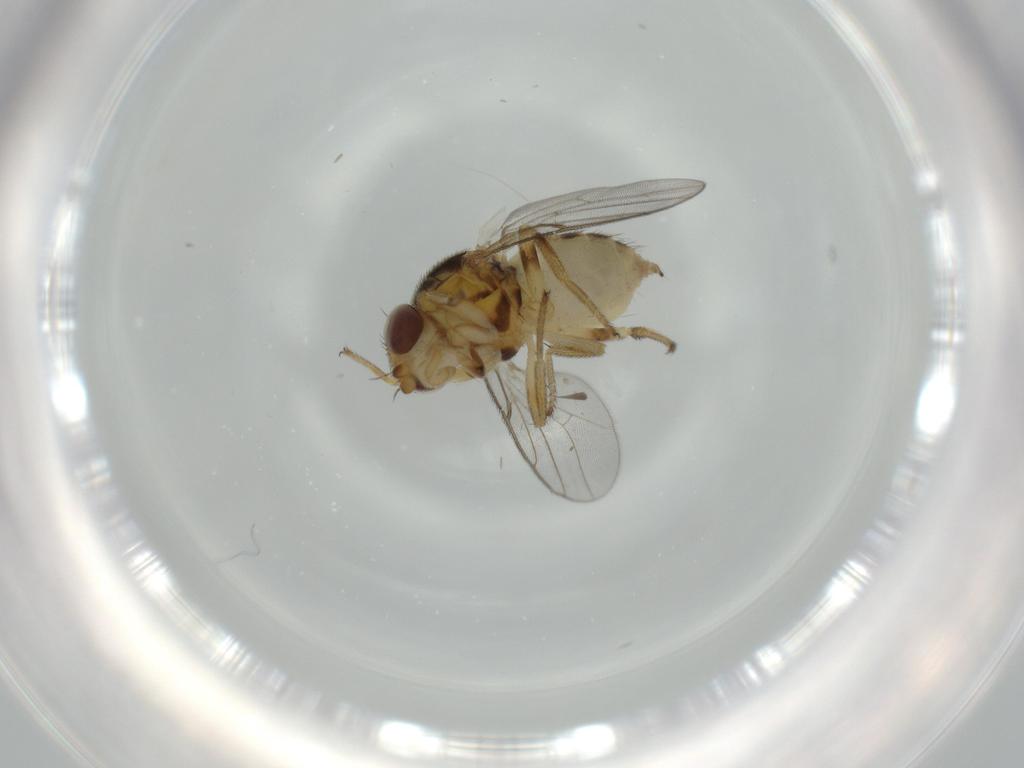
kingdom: Animalia
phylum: Arthropoda
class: Insecta
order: Diptera
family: Chloropidae
